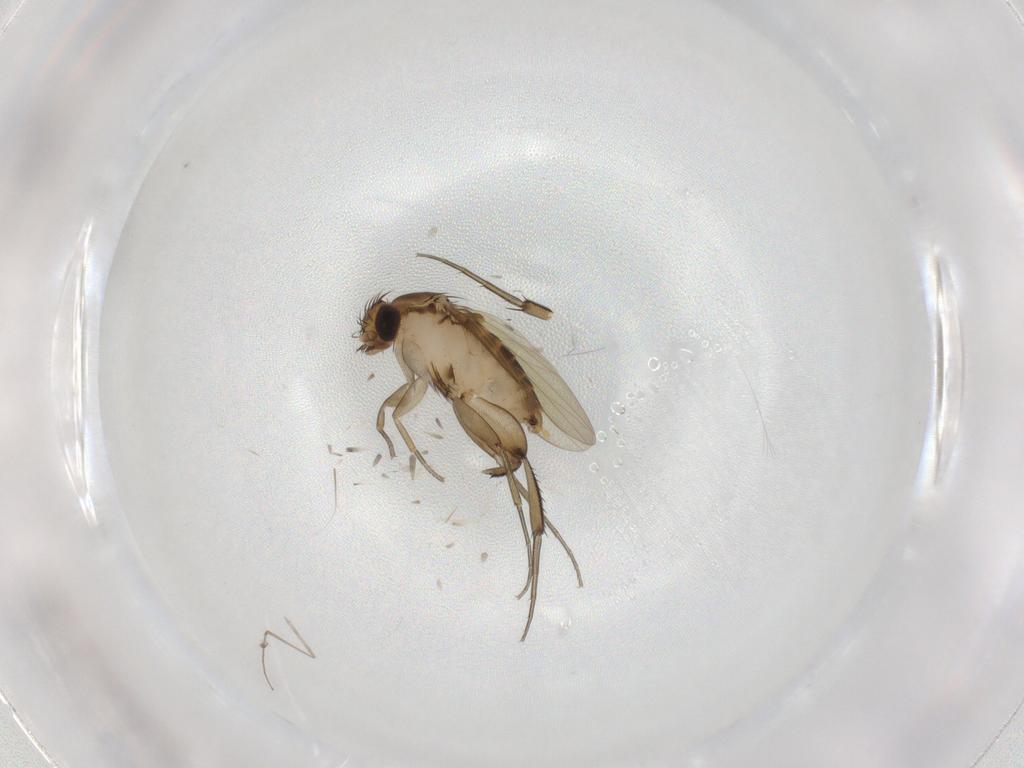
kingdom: Animalia
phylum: Arthropoda
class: Insecta
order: Diptera
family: Phoridae
